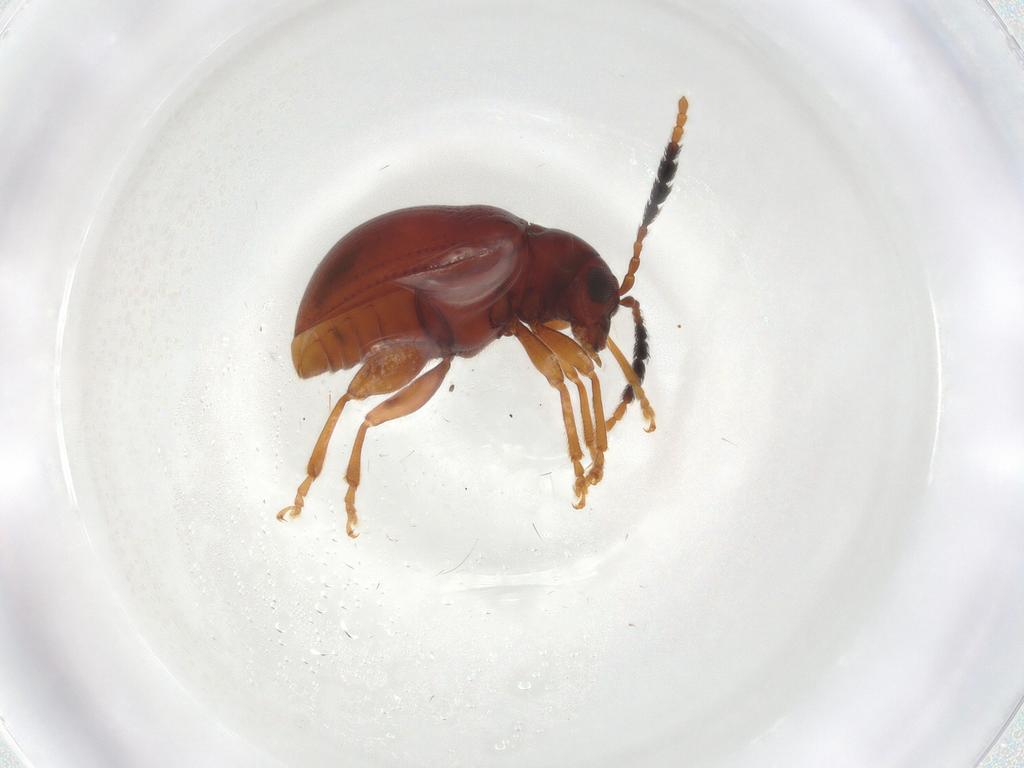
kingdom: Animalia
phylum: Arthropoda
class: Insecta
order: Coleoptera
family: Chrysomelidae
